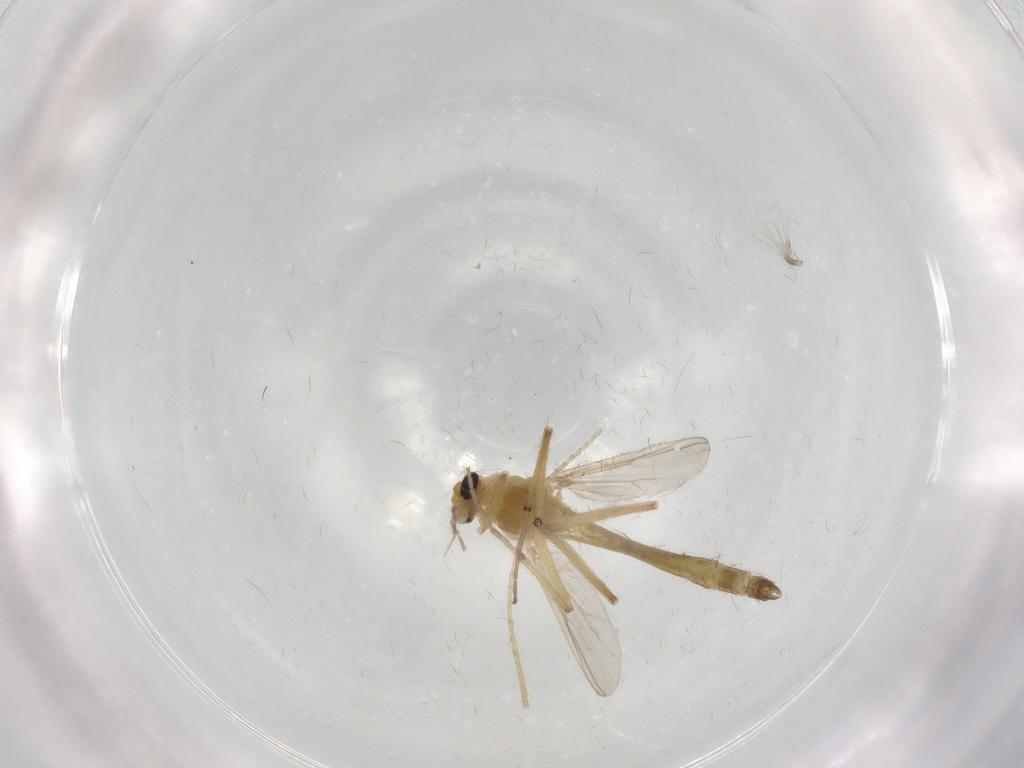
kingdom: Animalia
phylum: Arthropoda
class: Insecta
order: Diptera
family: Chironomidae
